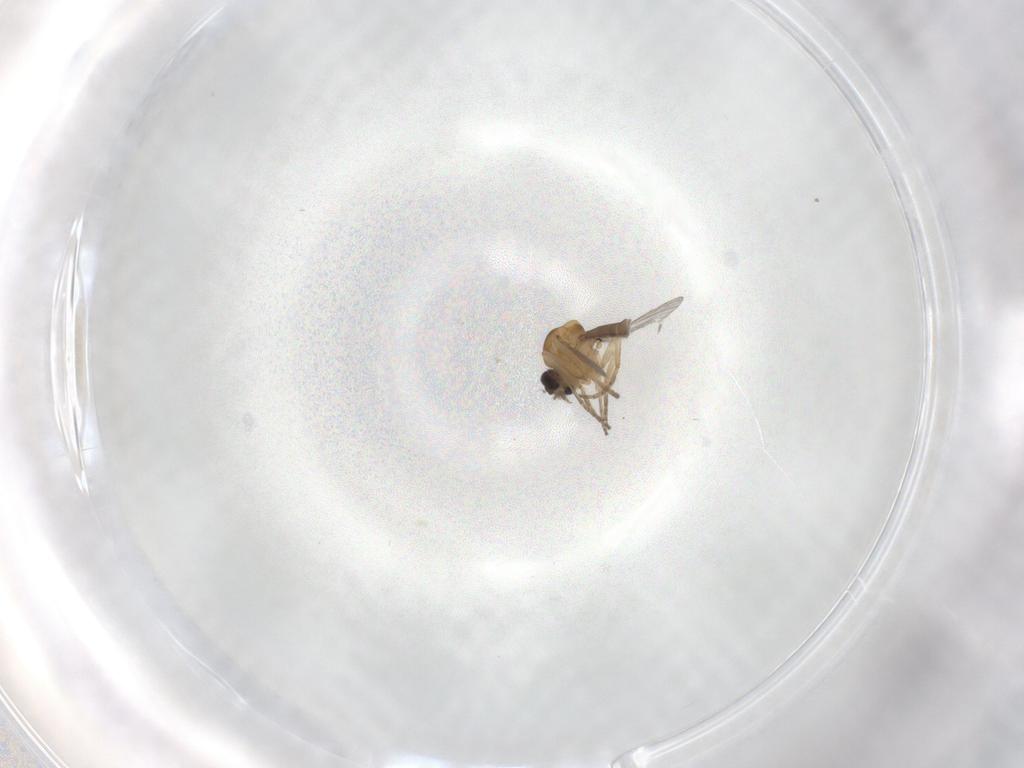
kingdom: Animalia
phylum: Arthropoda
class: Insecta
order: Diptera
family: Ceratopogonidae
